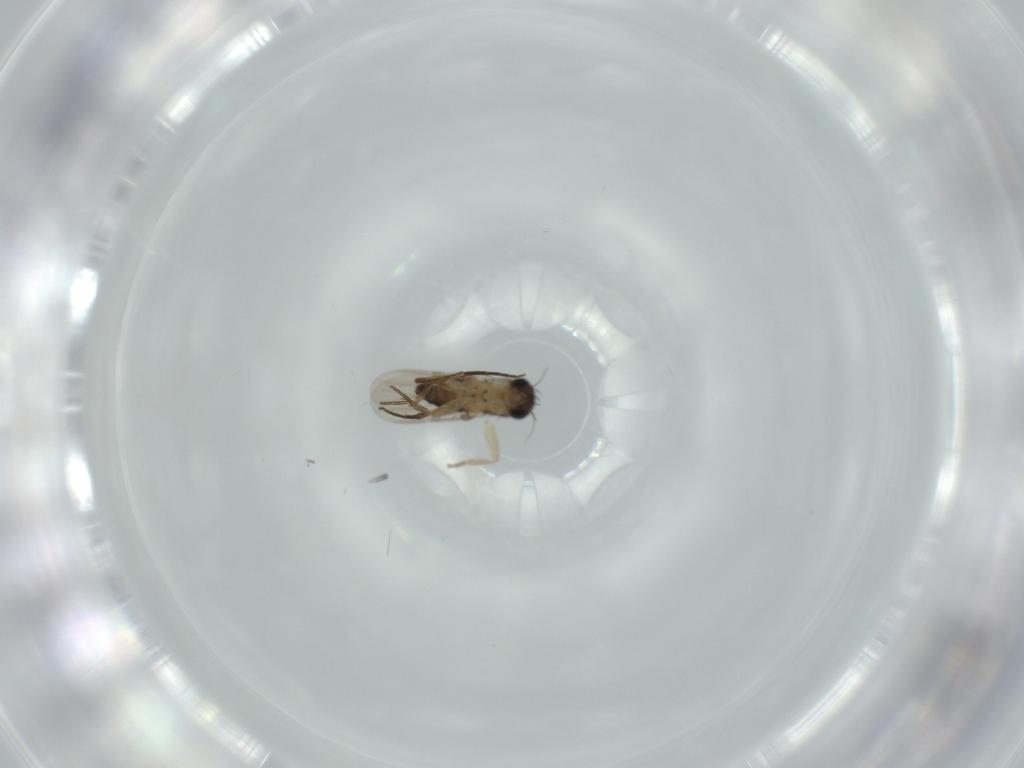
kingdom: Animalia
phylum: Arthropoda
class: Insecta
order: Diptera
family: Phoridae
